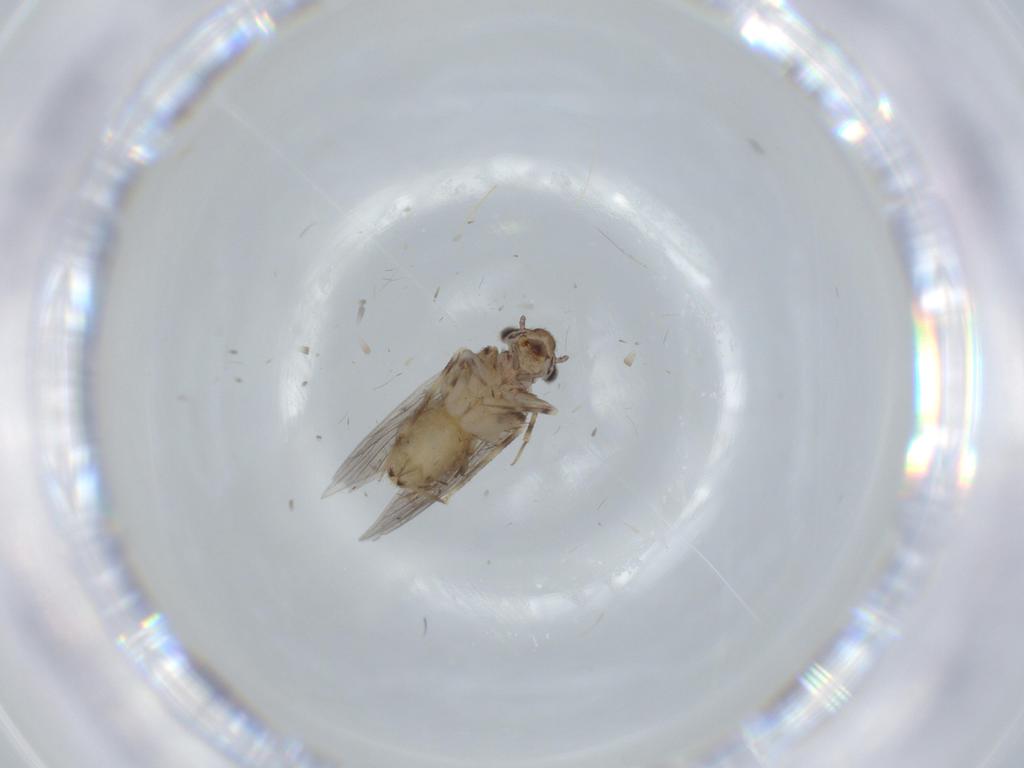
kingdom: Animalia
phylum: Arthropoda
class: Insecta
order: Psocodea
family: Lepidopsocidae
